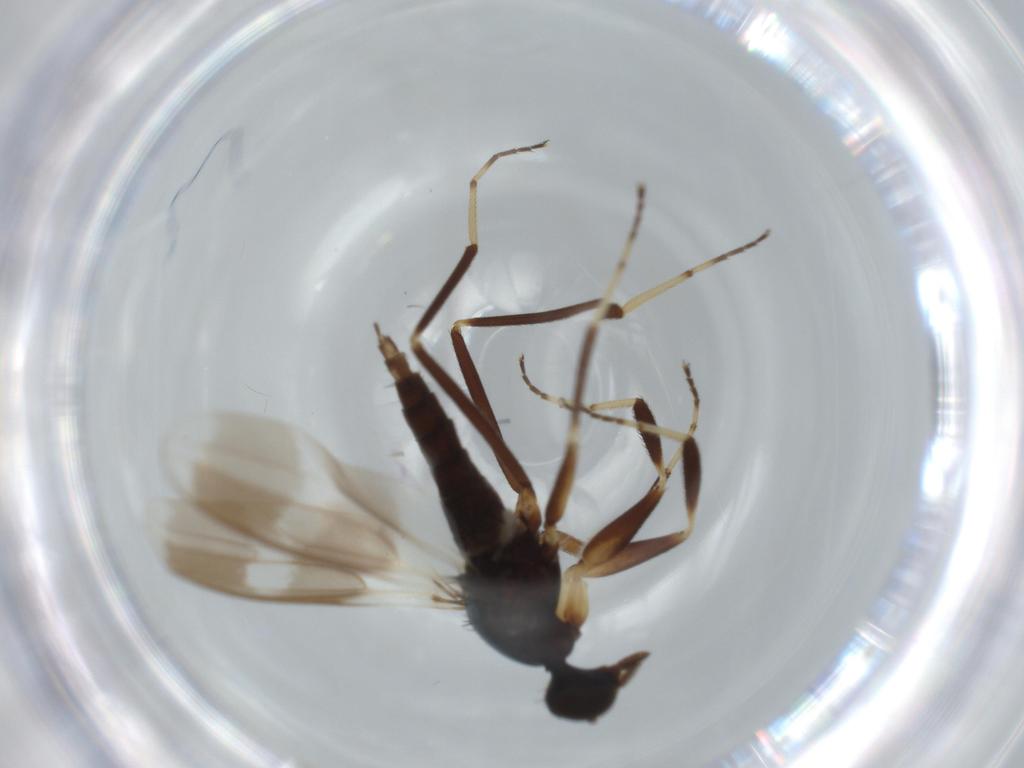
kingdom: Animalia
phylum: Arthropoda
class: Insecta
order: Diptera
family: Hybotidae
